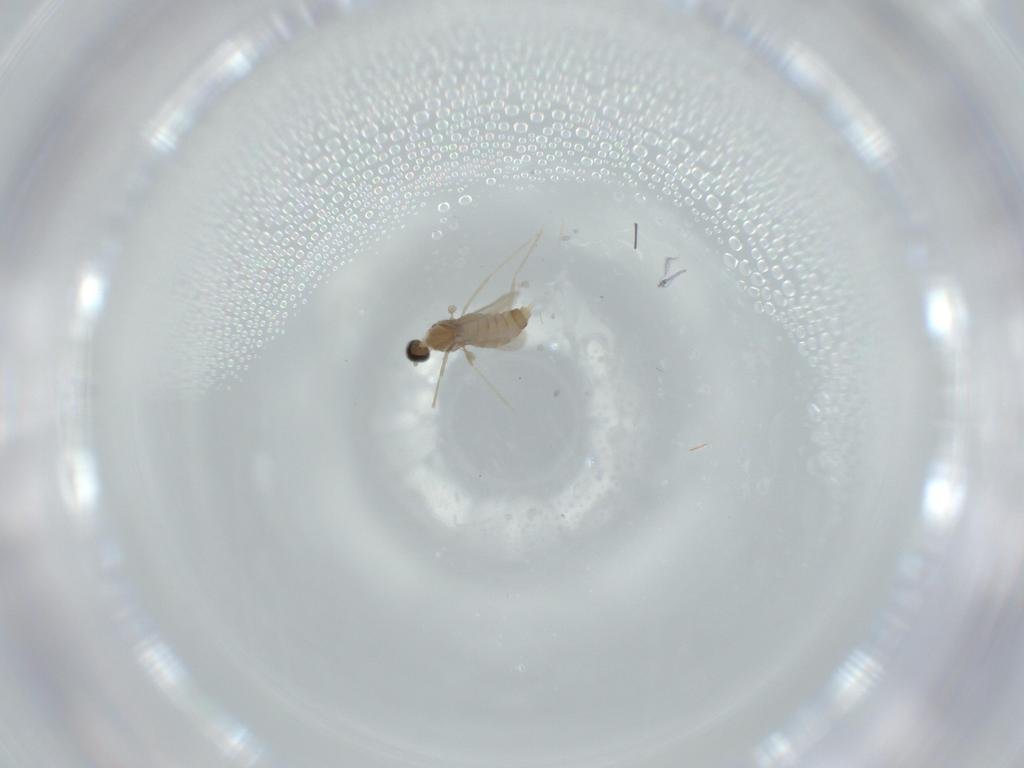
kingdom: Animalia
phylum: Arthropoda
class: Insecta
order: Diptera
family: Cecidomyiidae
